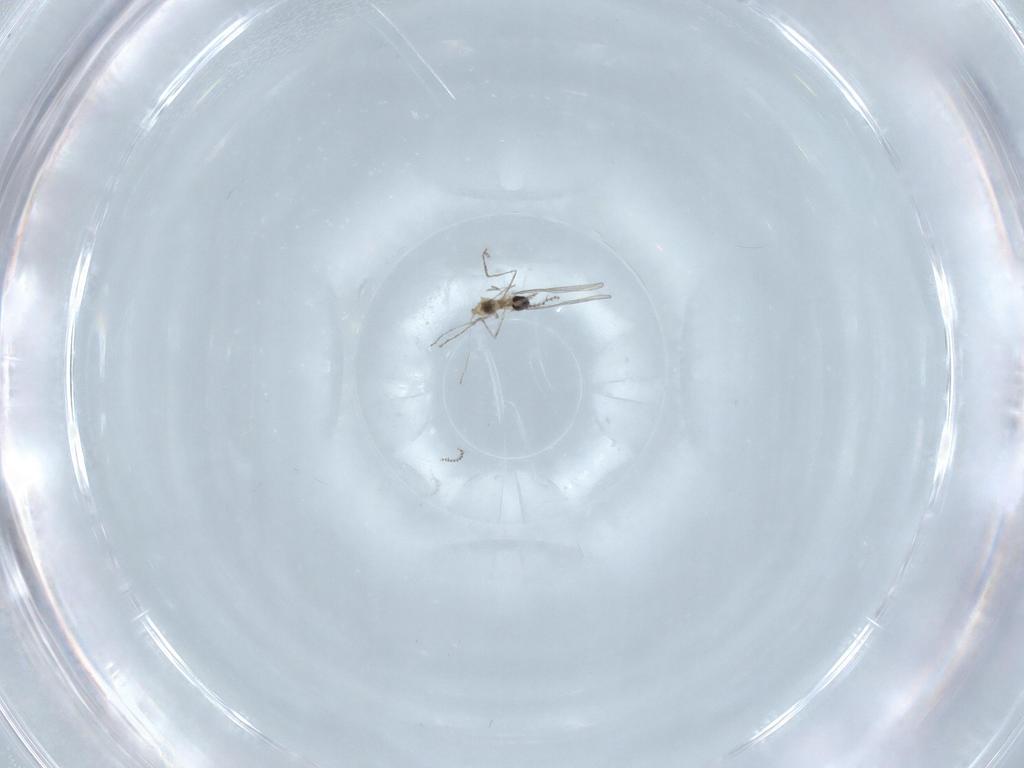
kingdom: Animalia
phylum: Arthropoda
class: Insecta
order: Diptera
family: Cecidomyiidae
